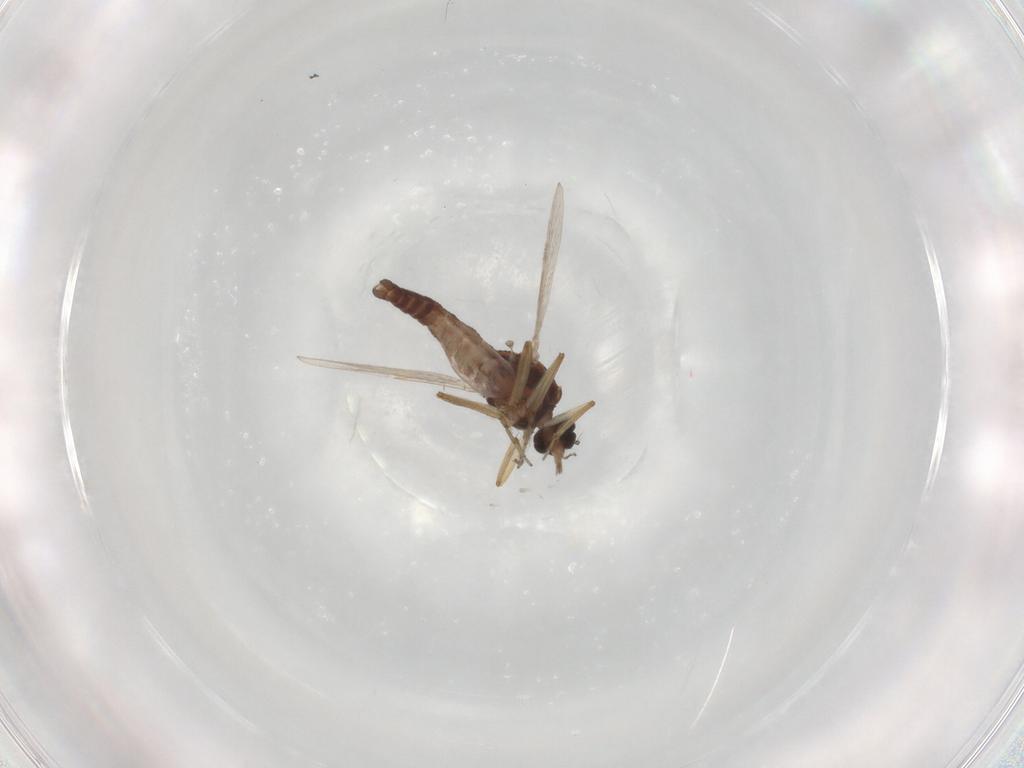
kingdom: Animalia
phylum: Arthropoda
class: Insecta
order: Diptera
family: Ceratopogonidae
